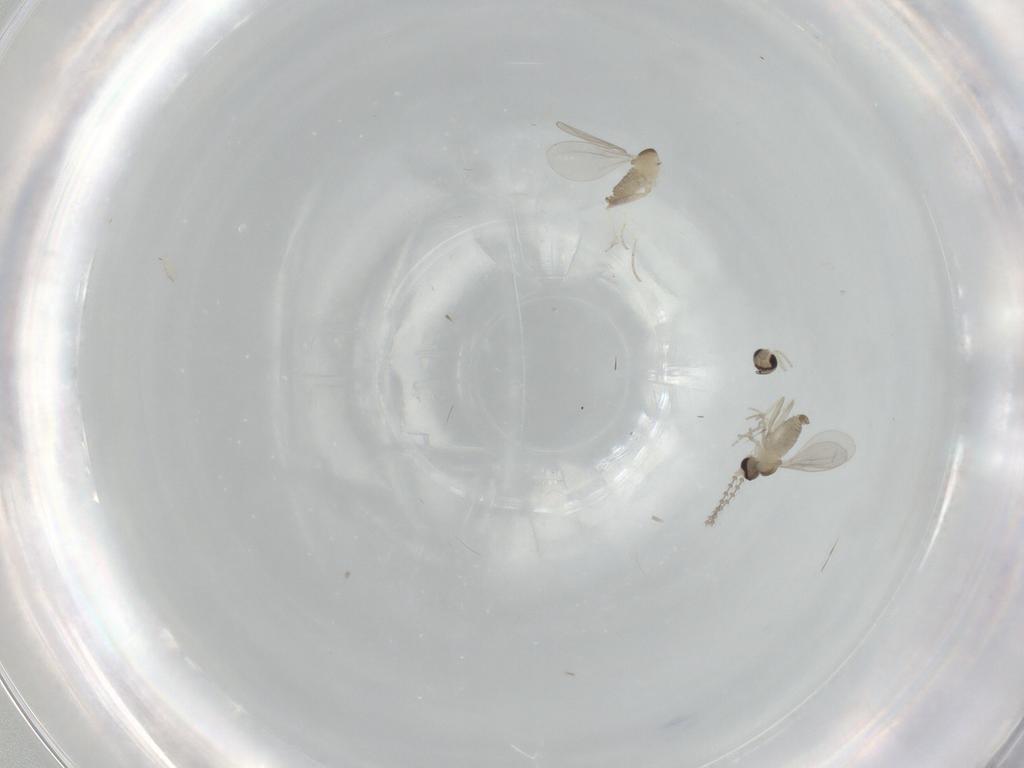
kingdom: Animalia
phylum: Arthropoda
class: Insecta
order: Diptera
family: Cecidomyiidae
